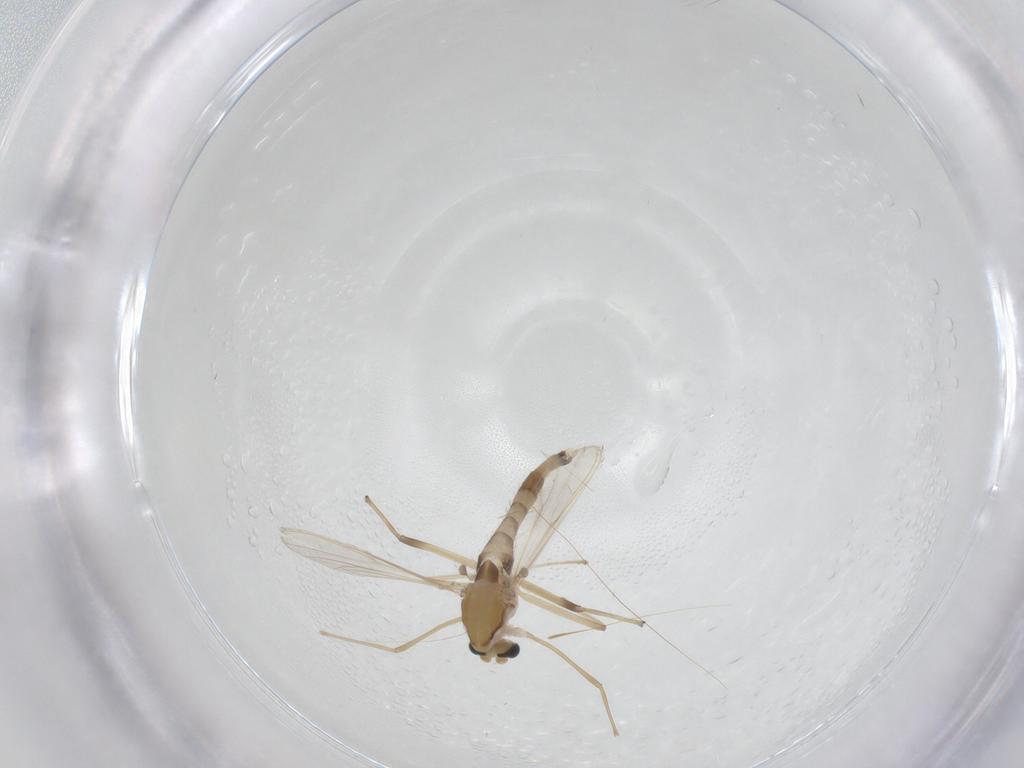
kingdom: Animalia
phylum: Arthropoda
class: Insecta
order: Diptera
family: Chironomidae
